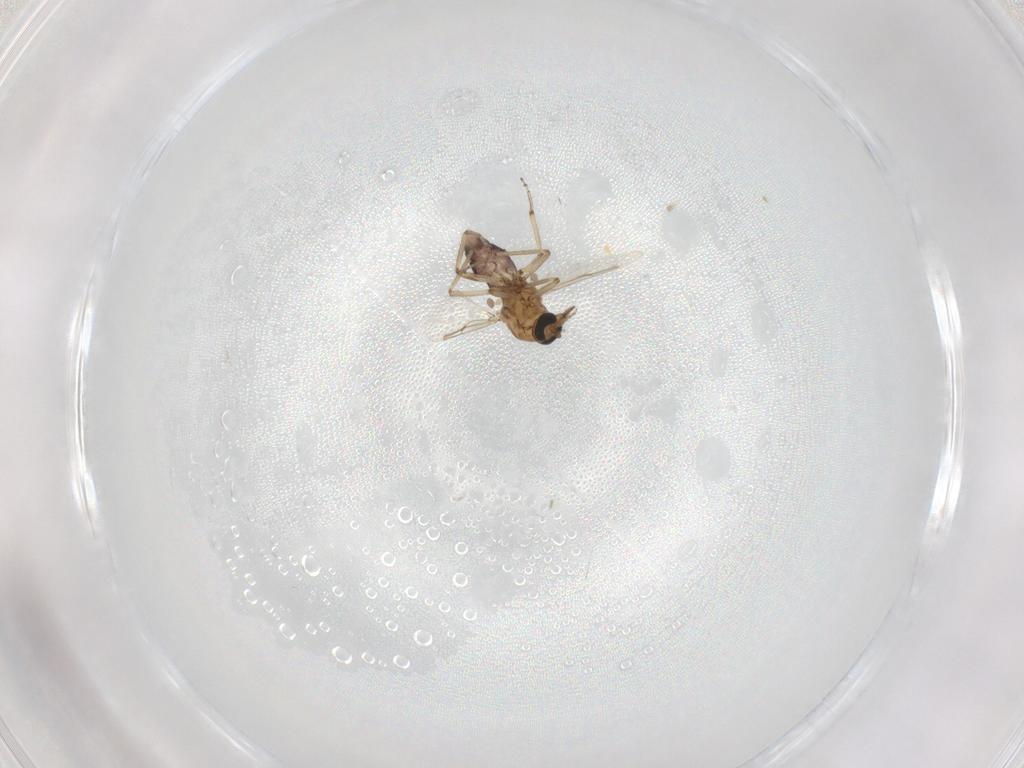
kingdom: Animalia
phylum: Arthropoda
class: Insecta
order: Diptera
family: Ceratopogonidae
